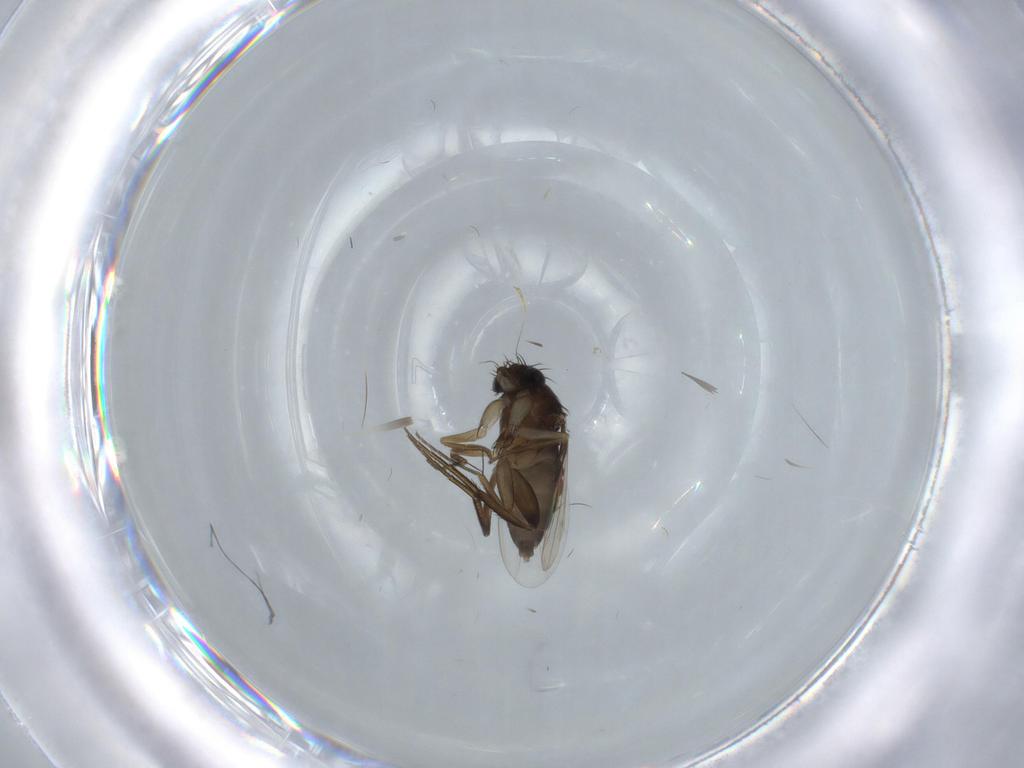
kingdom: Animalia
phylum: Arthropoda
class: Insecta
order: Diptera
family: Phoridae
